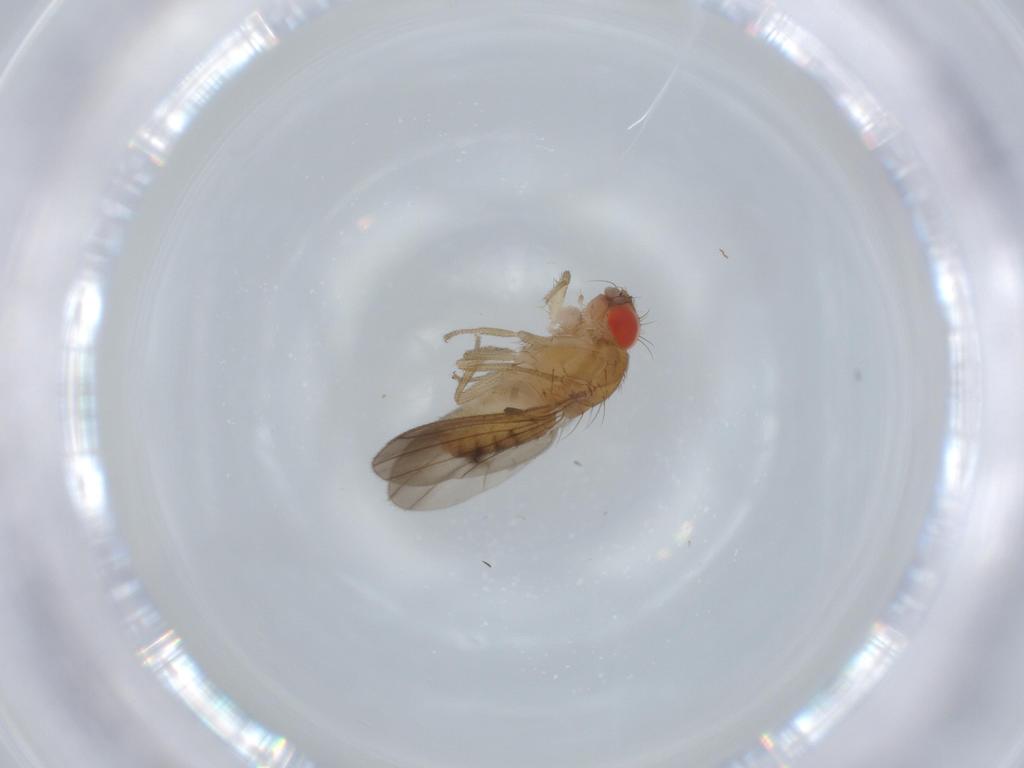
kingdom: Animalia
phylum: Arthropoda
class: Insecta
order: Diptera
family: Drosophilidae
